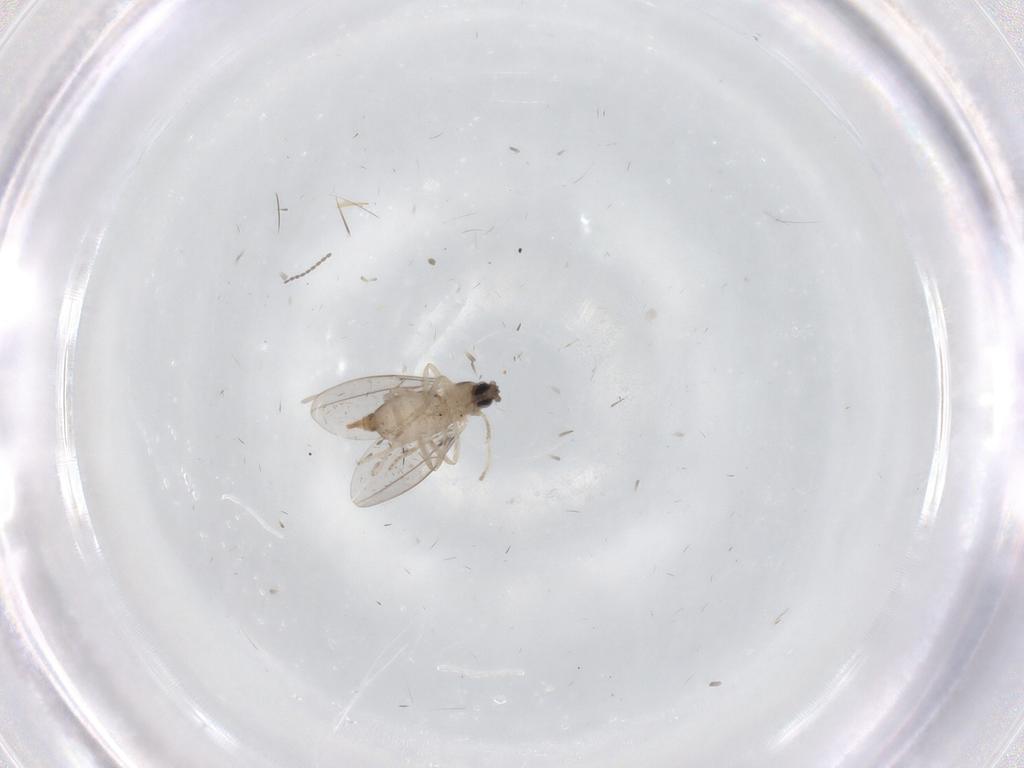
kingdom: Animalia
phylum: Arthropoda
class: Insecta
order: Diptera
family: Cecidomyiidae
